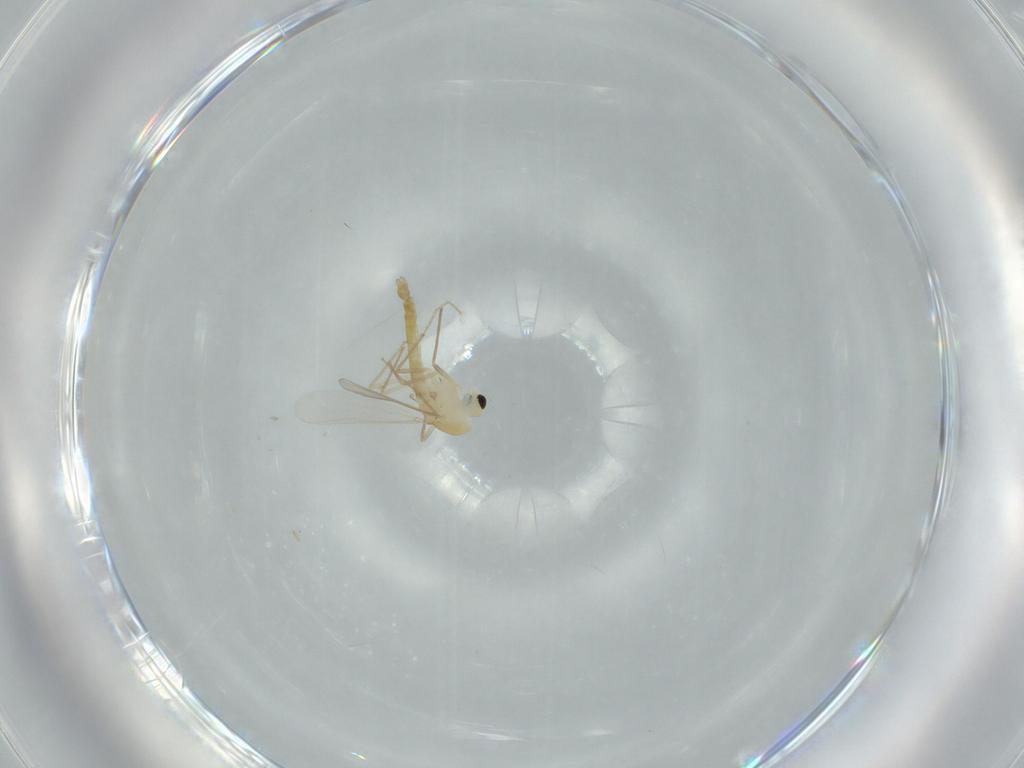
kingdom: Animalia
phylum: Arthropoda
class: Insecta
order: Diptera
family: Chironomidae
